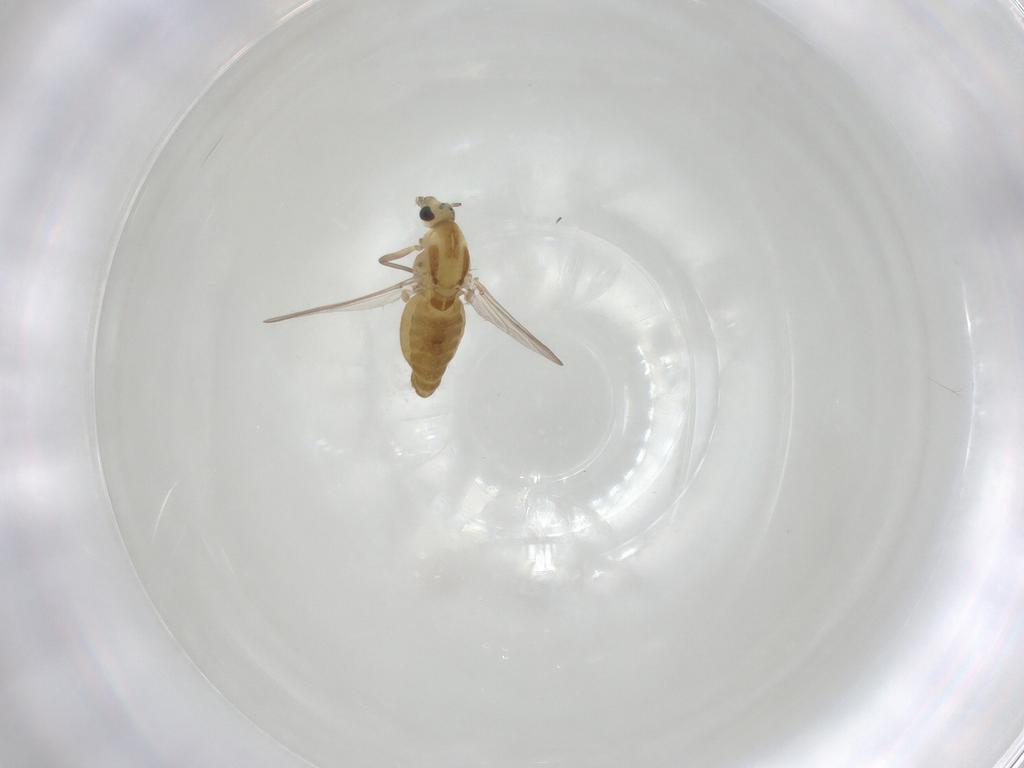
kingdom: Animalia
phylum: Arthropoda
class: Insecta
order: Diptera
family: Chironomidae
